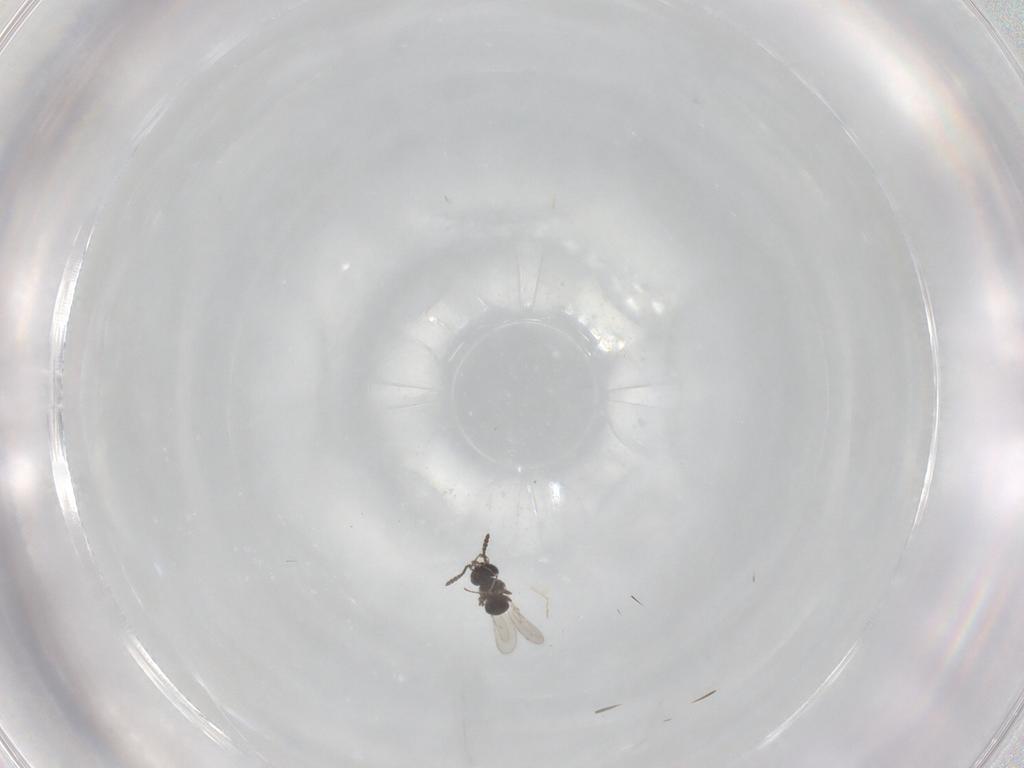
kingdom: Animalia
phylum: Arthropoda
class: Insecta
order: Hymenoptera
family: Scelionidae
